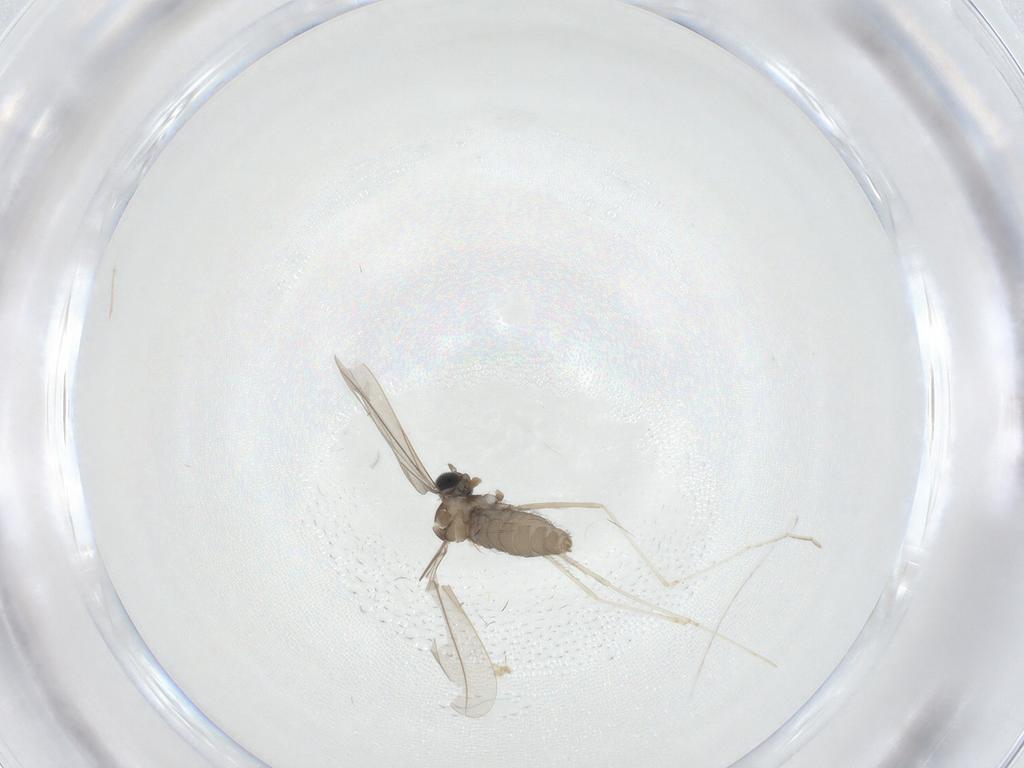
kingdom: Animalia
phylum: Arthropoda
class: Insecta
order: Diptera
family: Cecidomyiidae
